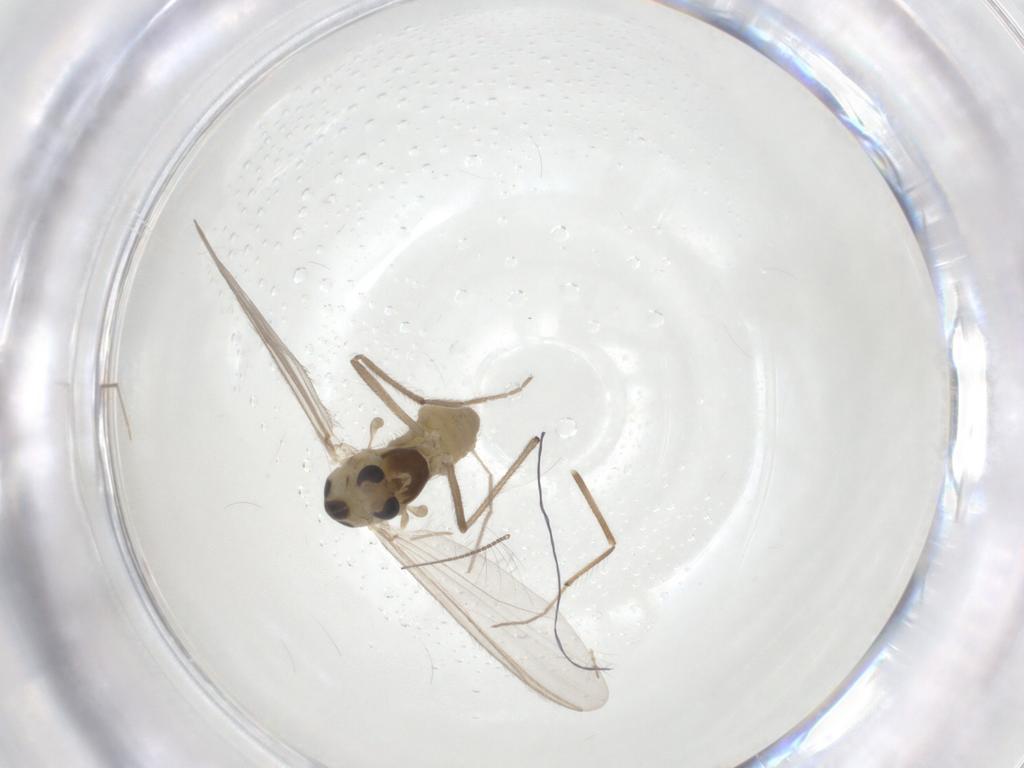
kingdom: Animalia
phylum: Arthropoda
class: Insecta
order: Diptera
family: Chironomidae
